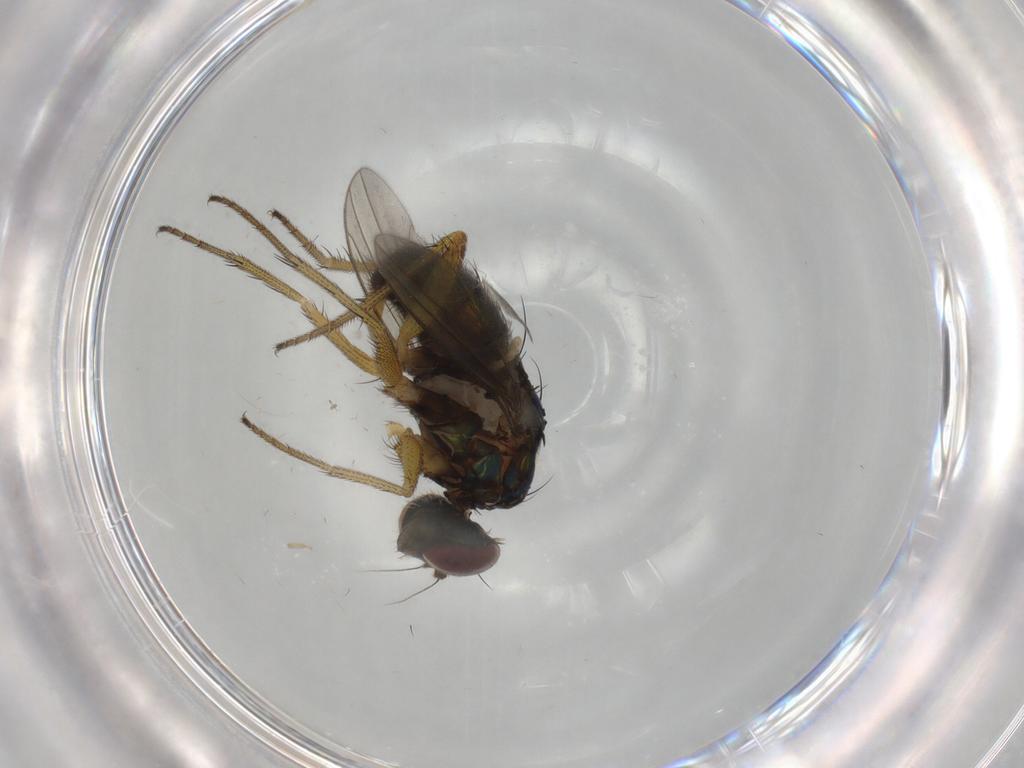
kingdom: Animalia
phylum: Arthropoda
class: Insecta
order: Diptera
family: Dolichopodidae
